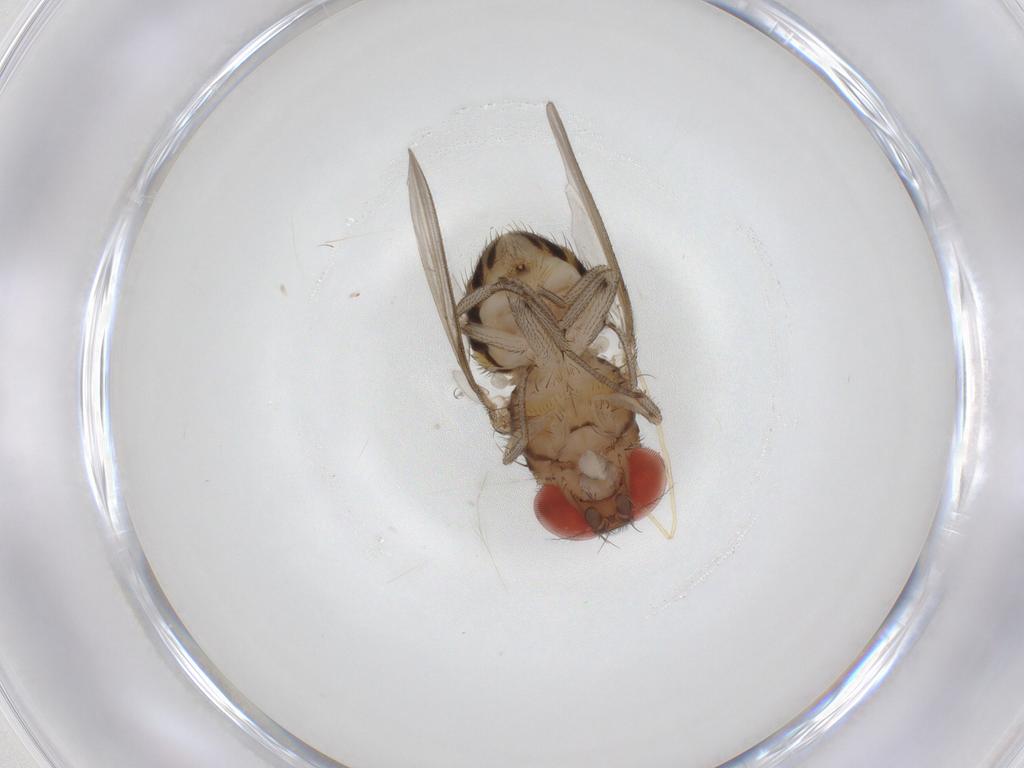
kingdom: Animalia
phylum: Arthropoda
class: Insecta
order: Diptera
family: Drosophilidae
